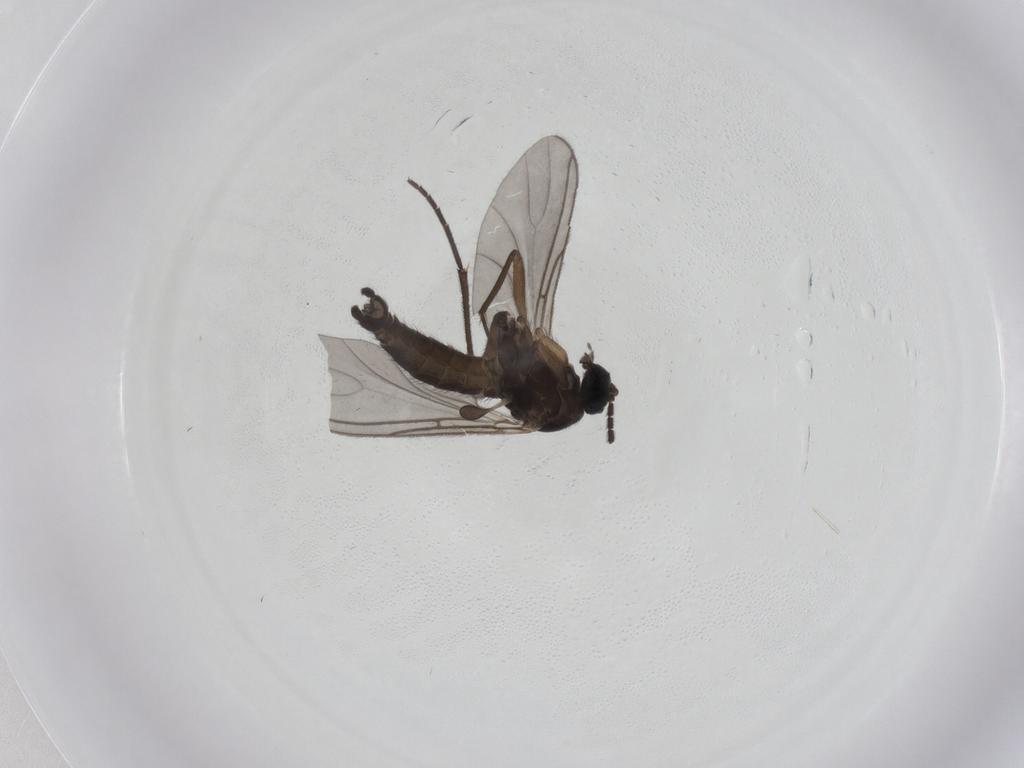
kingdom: Animalia
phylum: Arthropoda
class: Insecta
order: Diptera
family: Sciaridae
